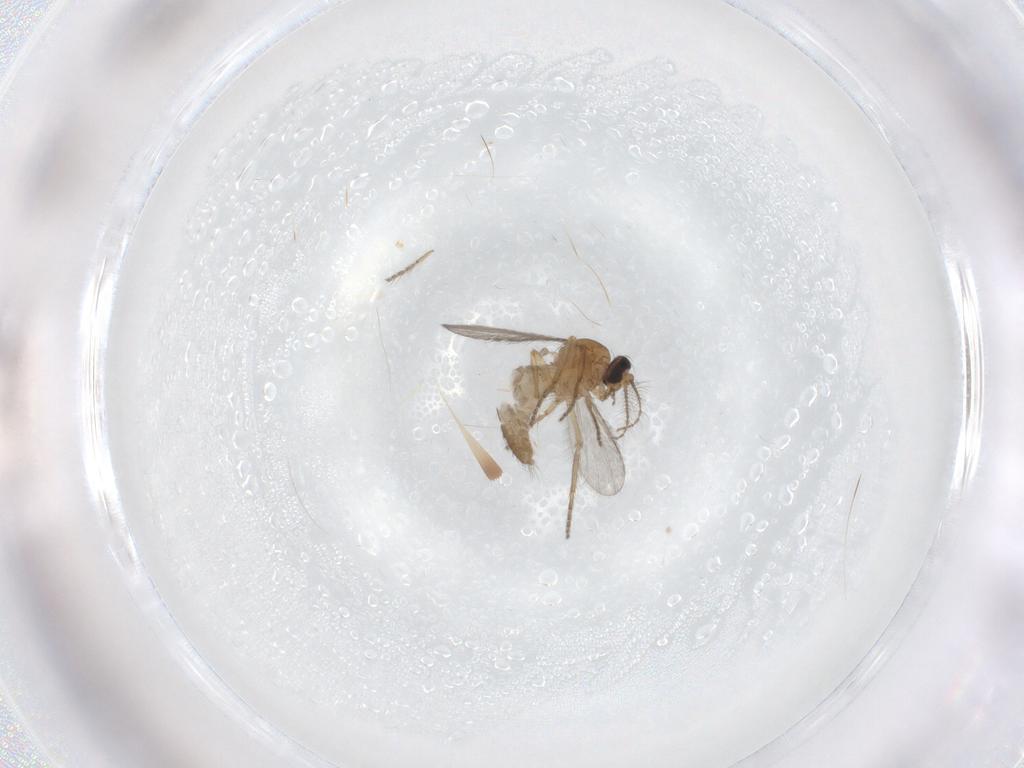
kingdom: Animalia
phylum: Arthropoda
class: Insecta
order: Diptera
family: Ceratopogonidae
